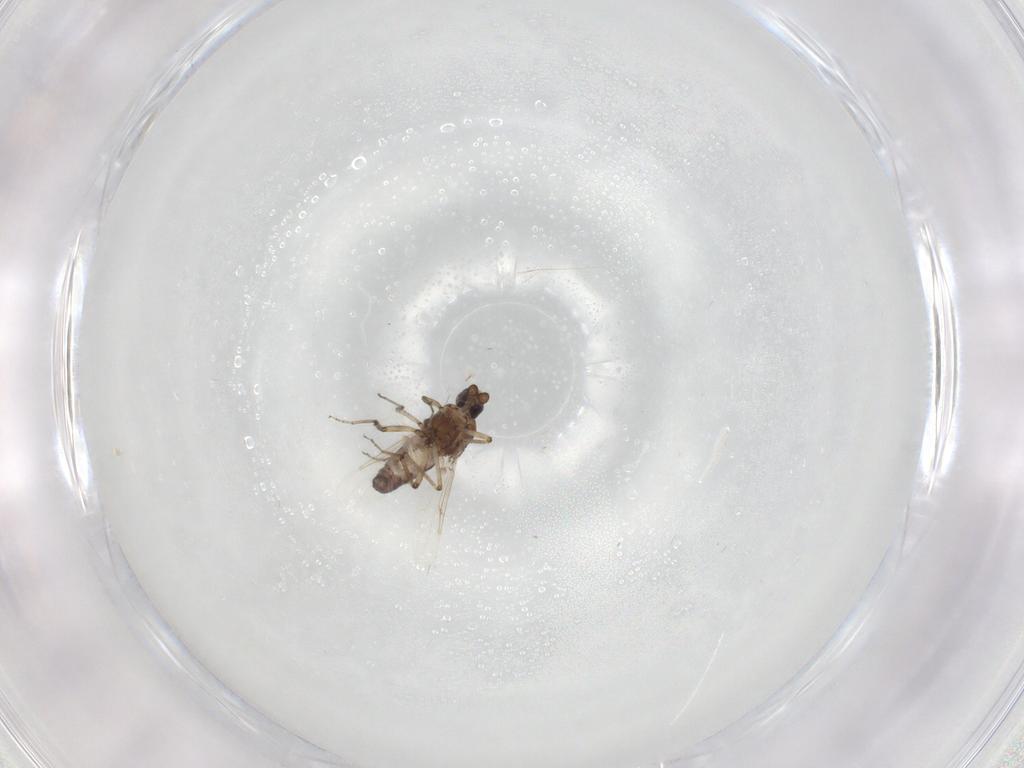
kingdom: Animalia
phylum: Arthropoda
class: Insecta
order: Diptera
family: Ceratopogonidae
